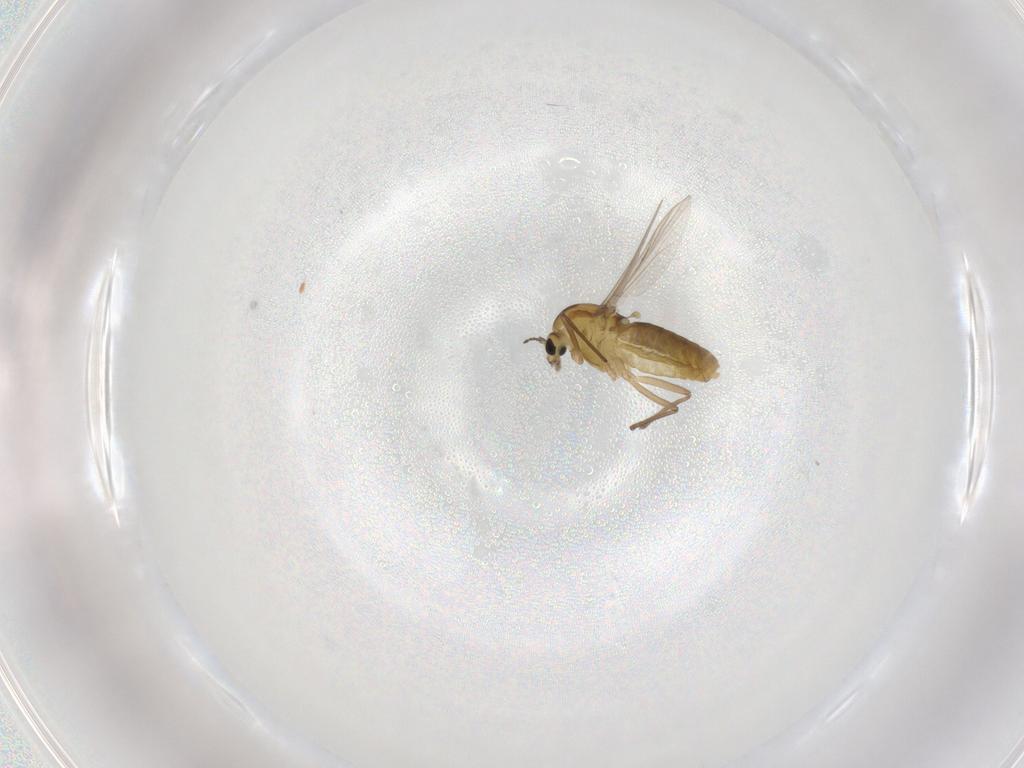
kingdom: Animalia
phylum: Arthropoda
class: Insecta
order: Diptera
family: Chironomidae
